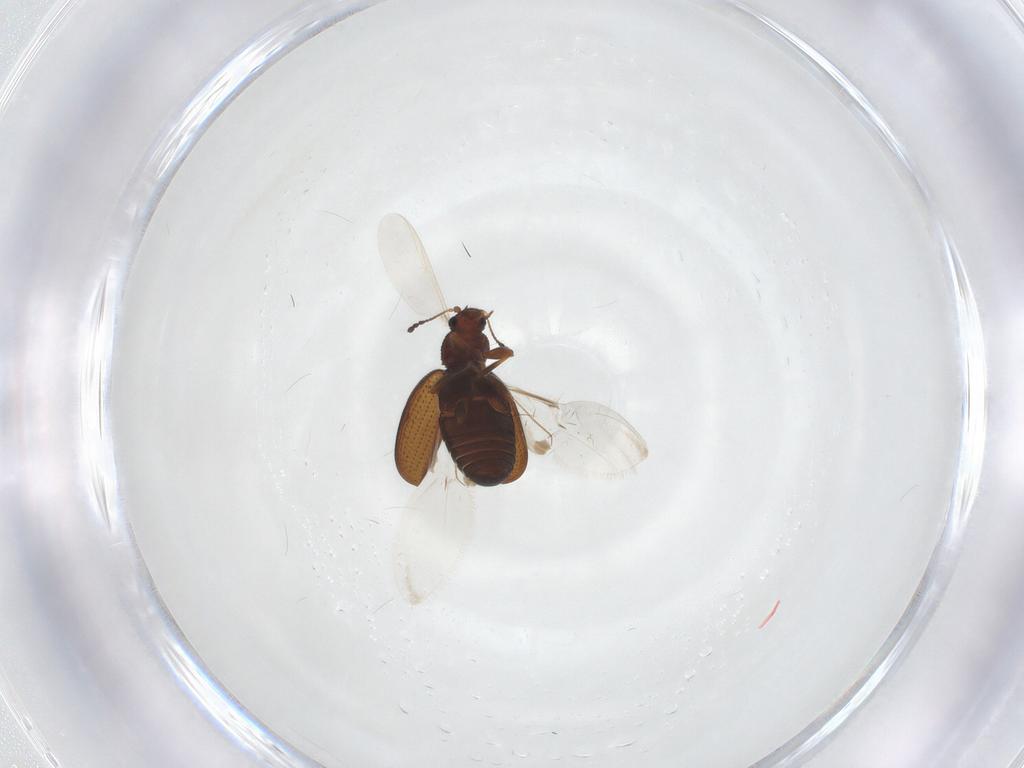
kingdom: Animalia
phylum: Arthropoda
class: Insecta
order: Coleoptera
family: Latridiidae
